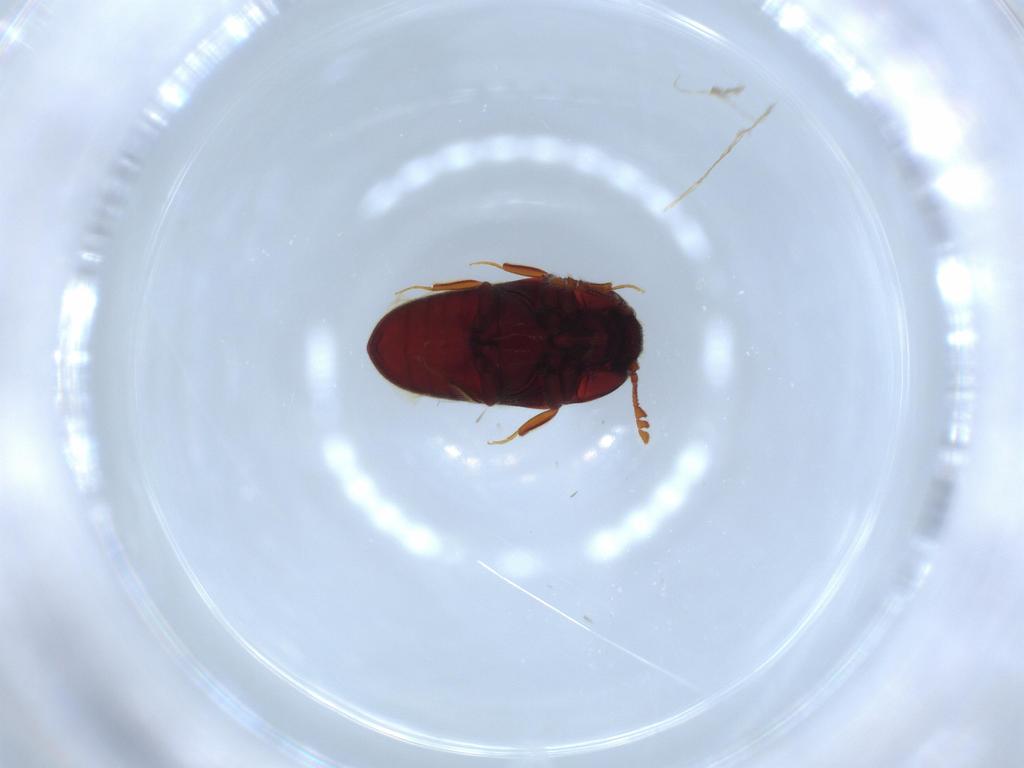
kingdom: Animalia
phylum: Arthropoda
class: Insecta
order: Coleoptera
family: Throscidae
